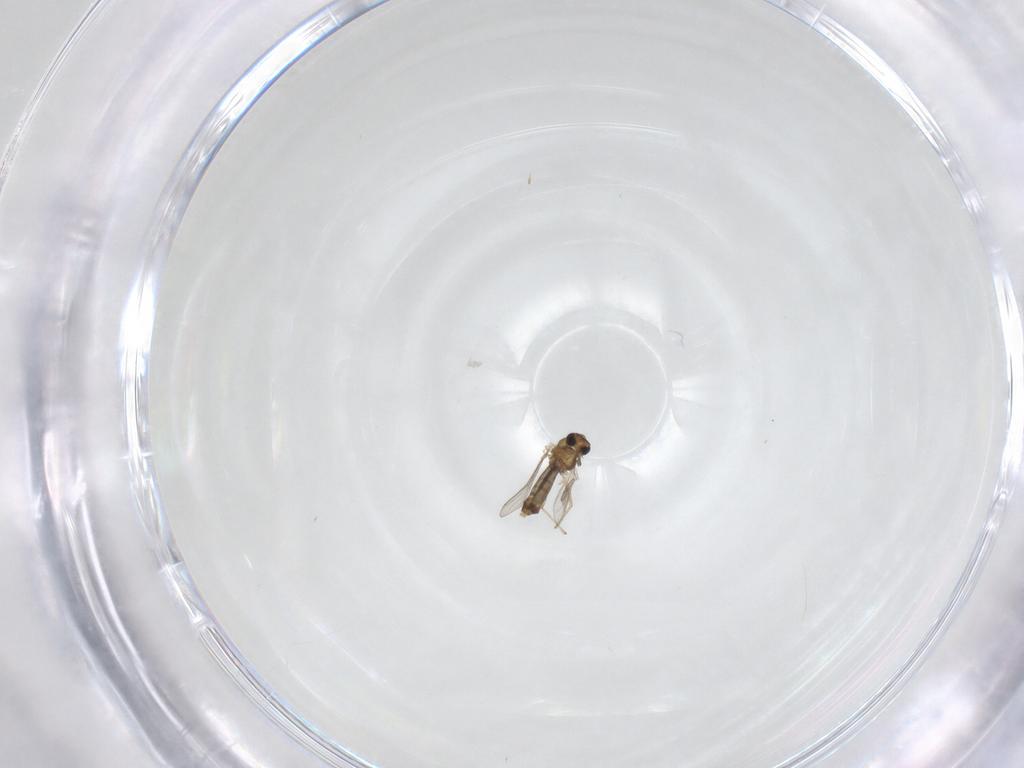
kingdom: Animalia
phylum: Arthropoda
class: Insecta
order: Diptera
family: Chironomidae
